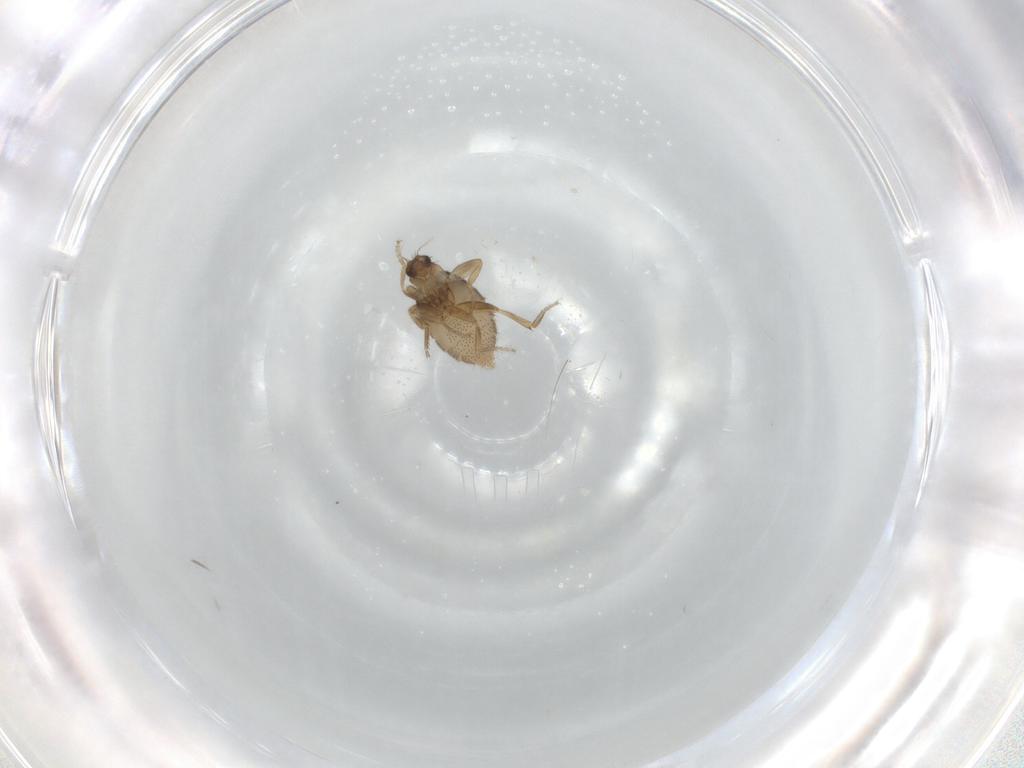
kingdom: Animalia
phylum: Arthropoda
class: Insecta
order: Diptera
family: Phoridae
